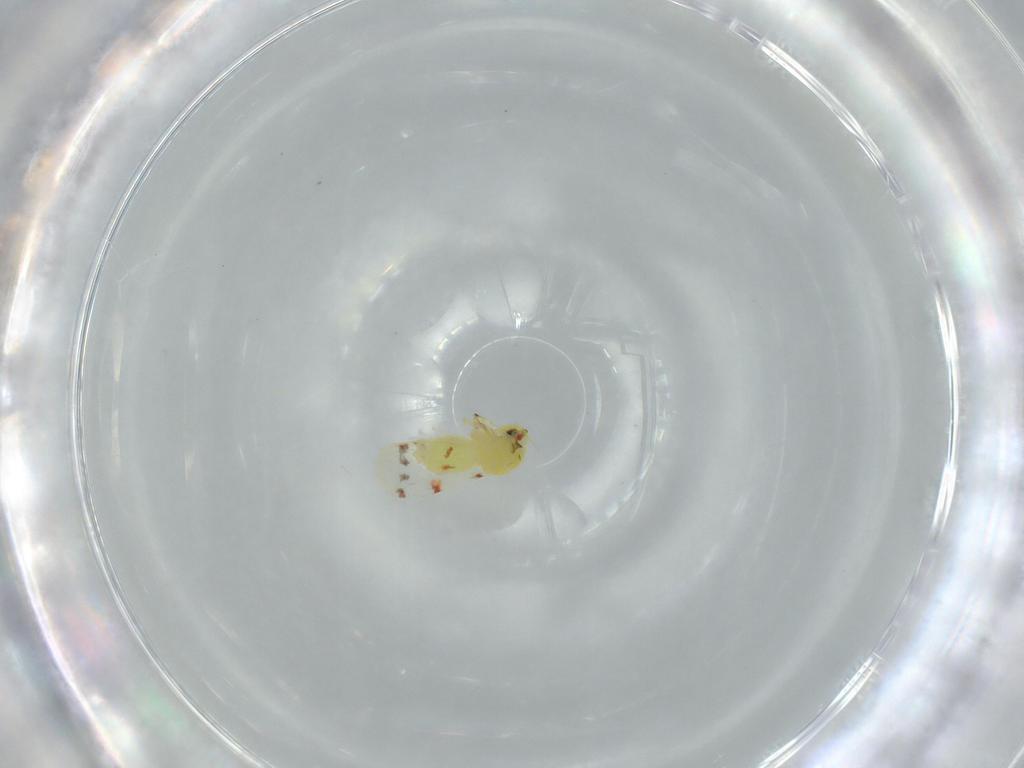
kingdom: Animalia
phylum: Arthropoda
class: Insecta
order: Hemiptera
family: Aleyrodidae
